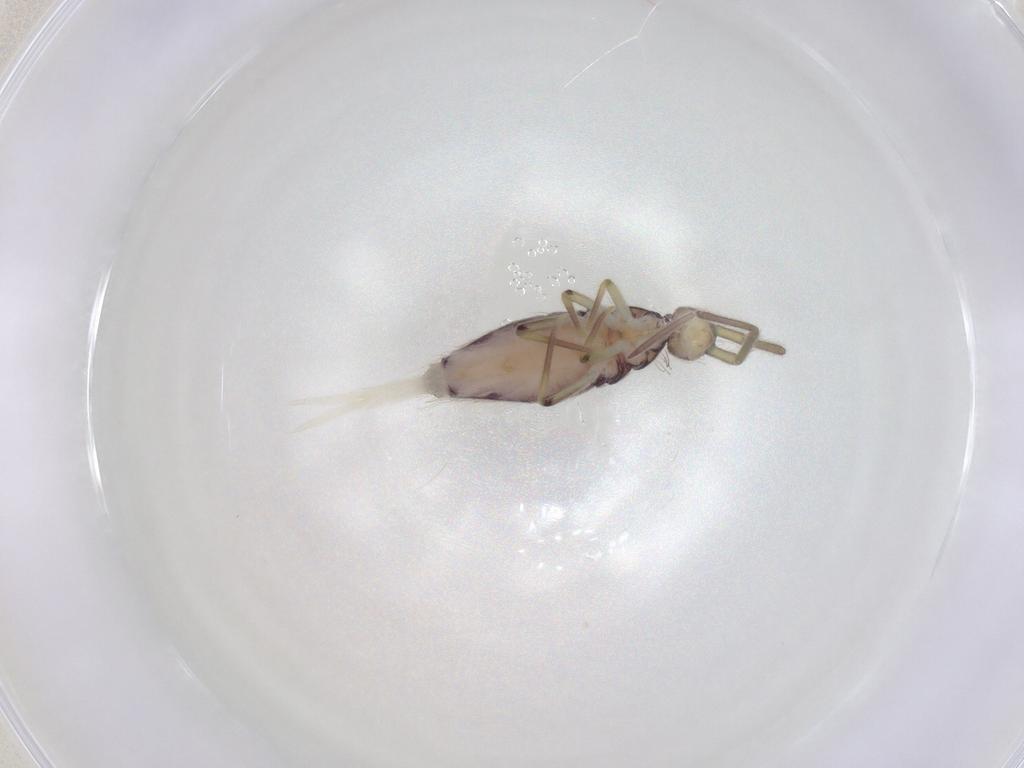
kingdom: Animalia
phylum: Arthropoda
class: Collembola
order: Entomobryomorpha
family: Entomobryidae
